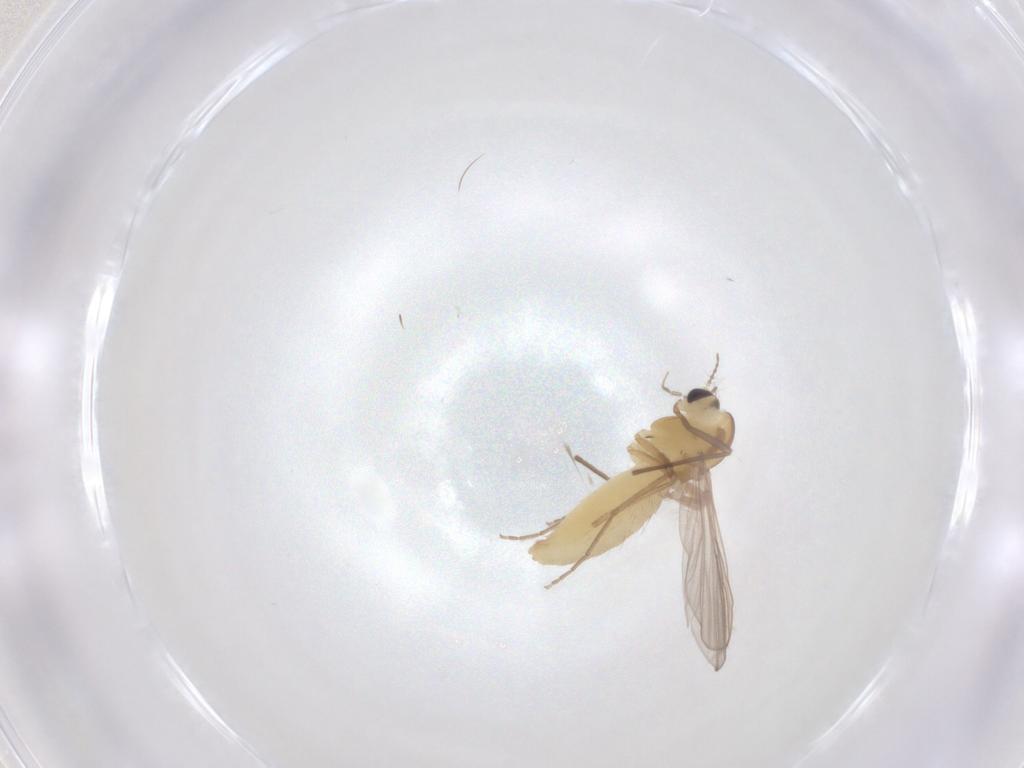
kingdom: Animalia
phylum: Arthropoda
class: Insecta
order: Diptera
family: Chironomidae
